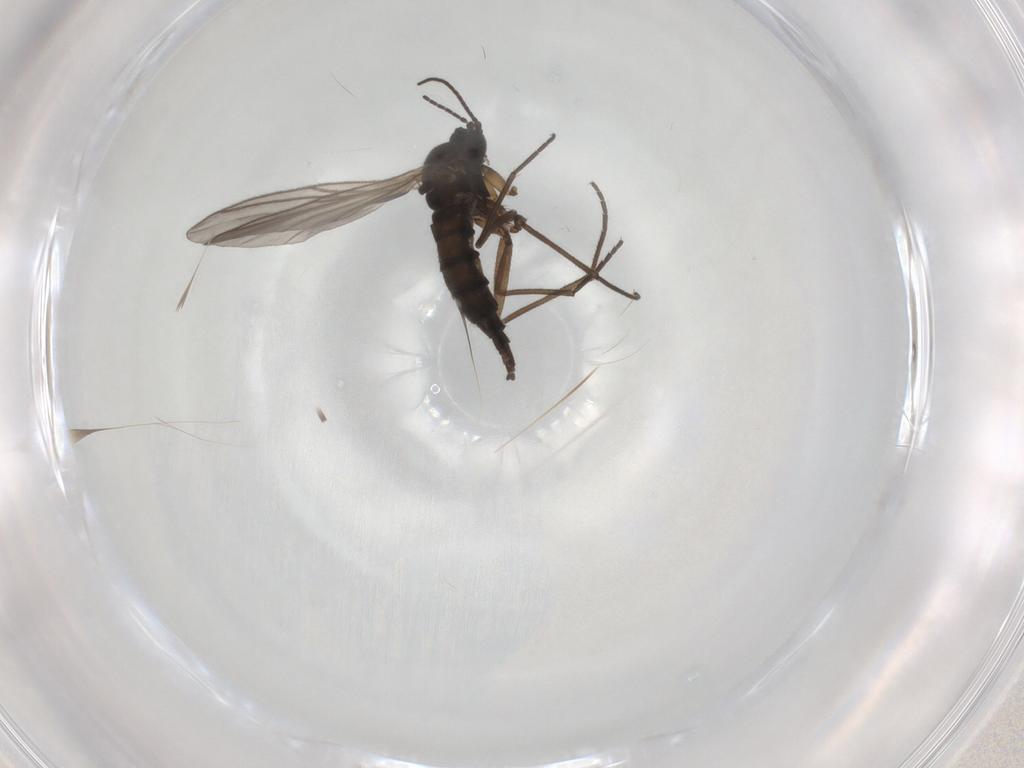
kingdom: Animalia
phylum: Arthropoda
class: Insecta
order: Diptera
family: Sciaridae
